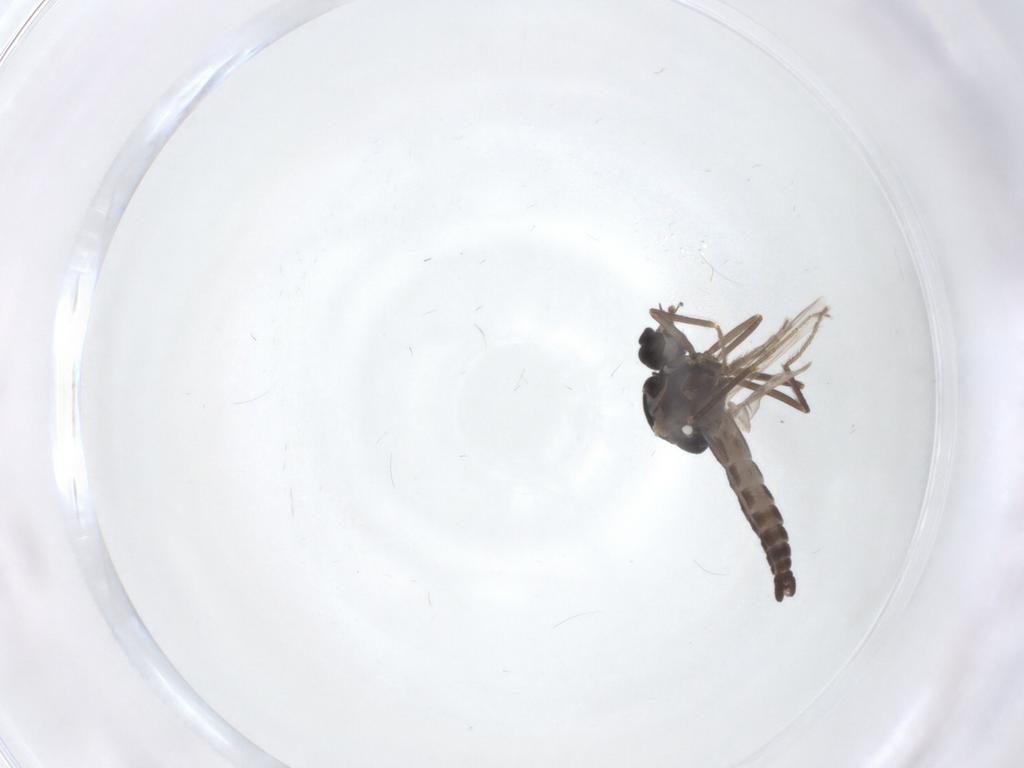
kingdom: Animalia
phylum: Arthropoda
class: Insecta
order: Diptera
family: Ceratopogonidae
